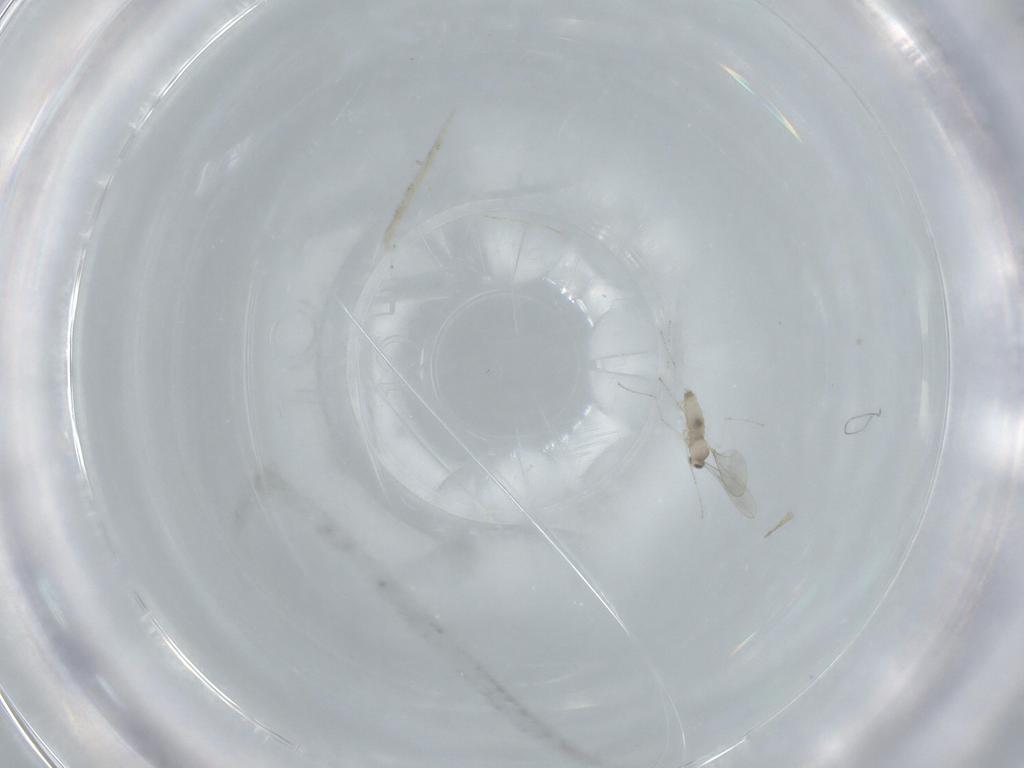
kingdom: Animalia
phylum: Arthropoda
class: Insecta
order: Diptera
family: Cecidomyiidae
